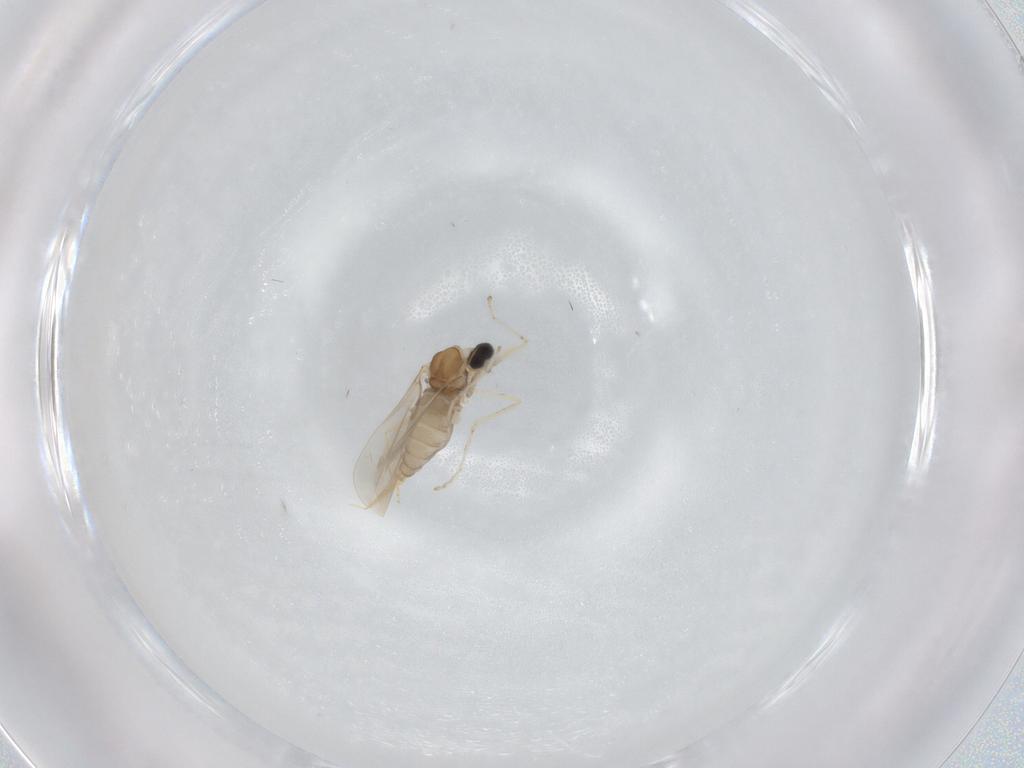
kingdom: Animalia
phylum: Arthropoda
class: Insecta
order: Diptera
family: Cecidomyiidae
